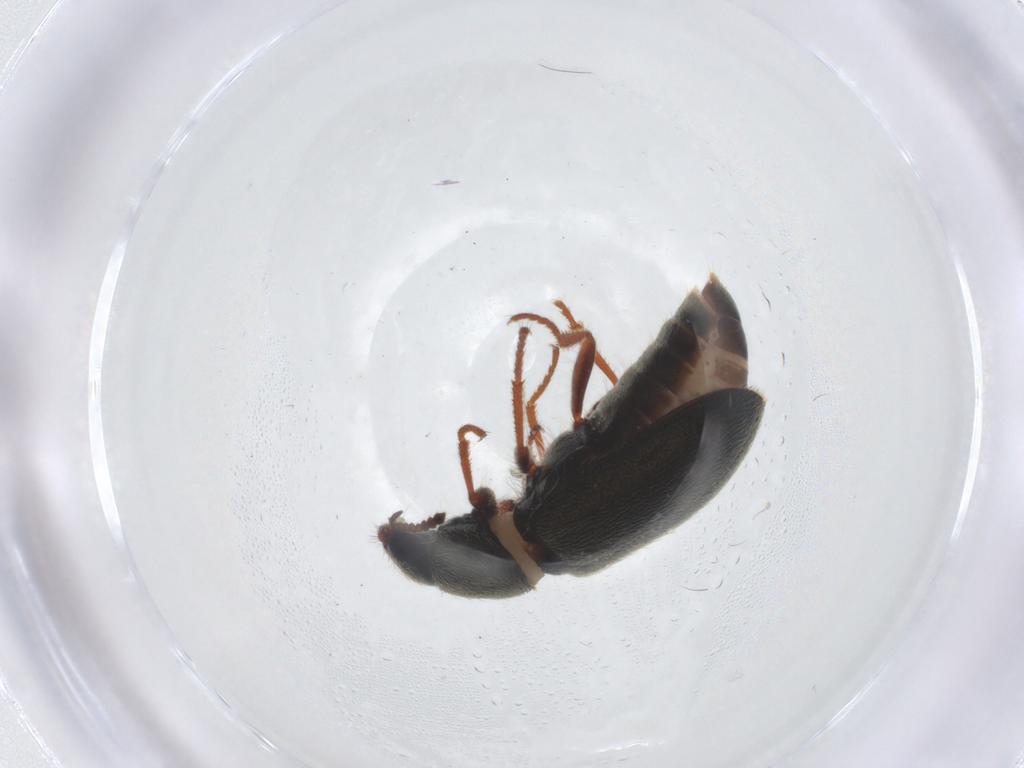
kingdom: Animalia
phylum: Arthropoda
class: Insecta
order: Coleoptera
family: Melyridae
